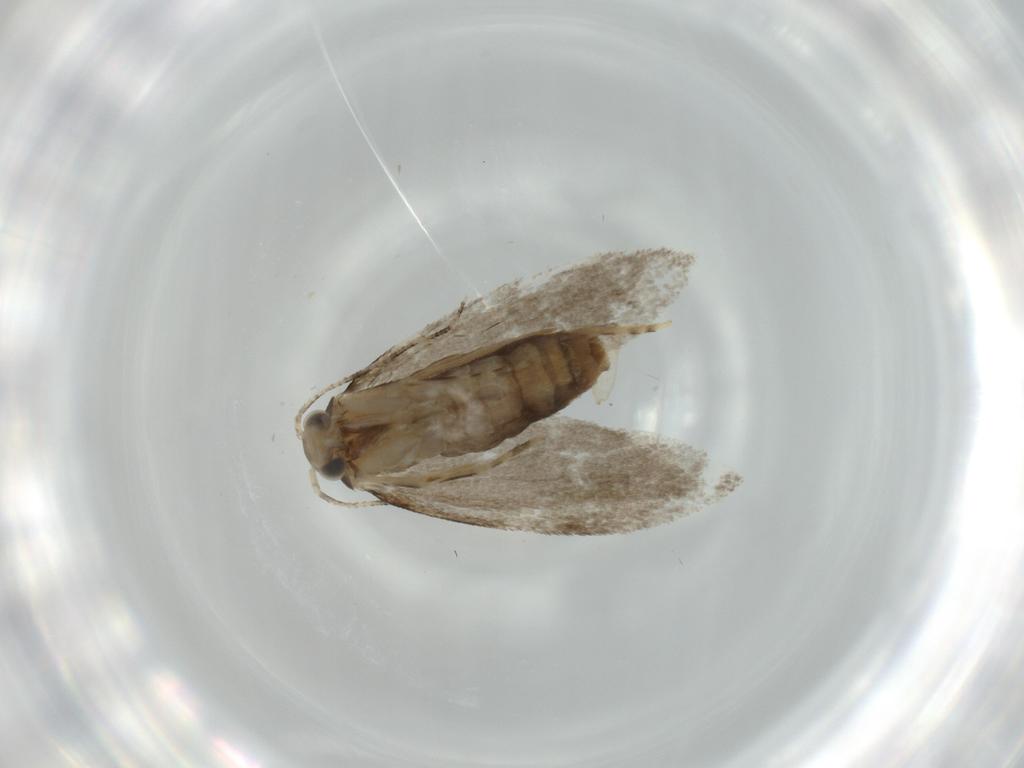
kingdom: Animalia
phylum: Arthropoda
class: Insecta
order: Lepidoptera
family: Tineidae
